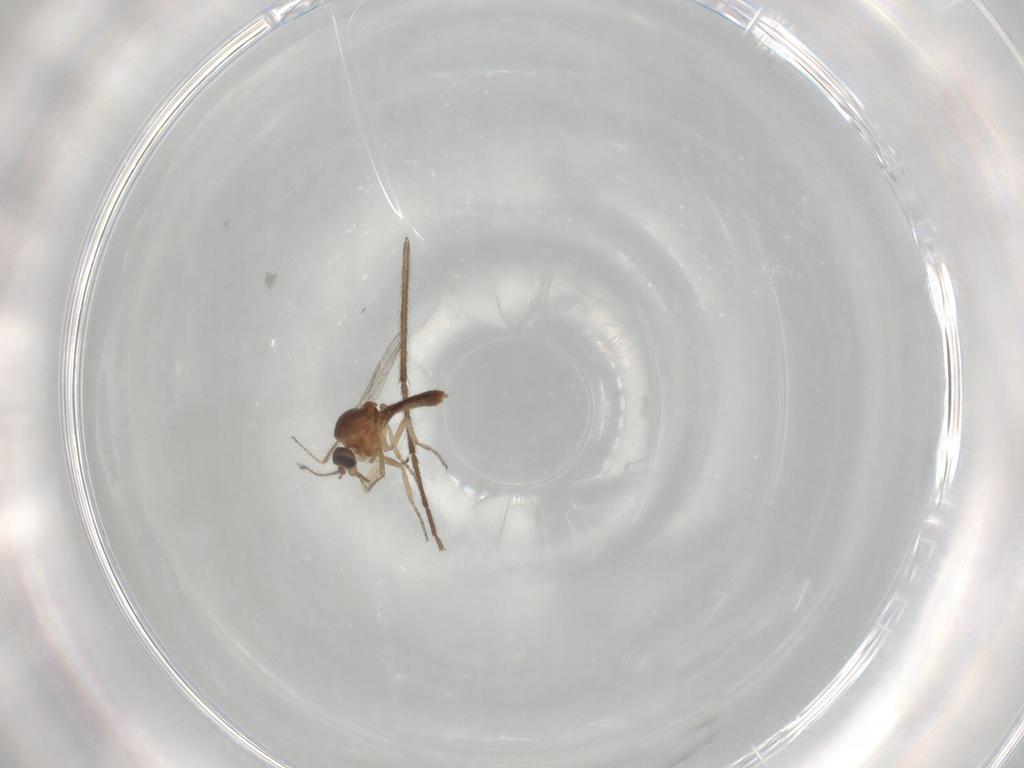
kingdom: Animalia
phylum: Arthropoda
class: Insecta
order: Diptera
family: Chironomidae
